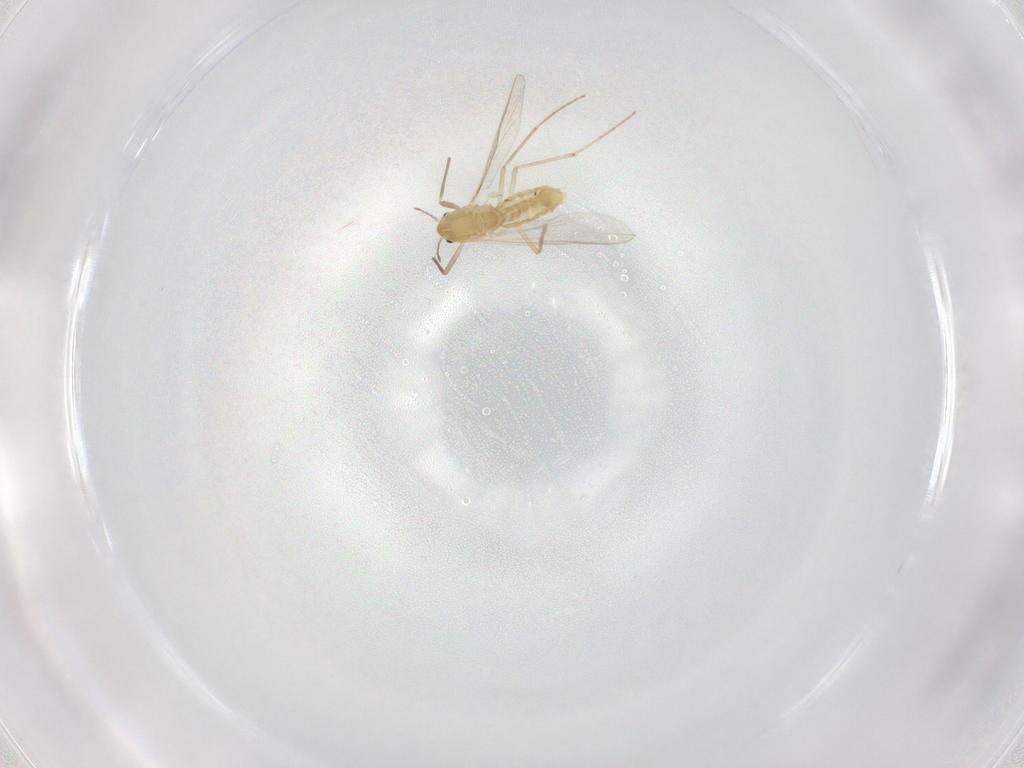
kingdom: Animalia
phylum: Arthropoda
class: Insecta
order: Diptera
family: Chironomidae
